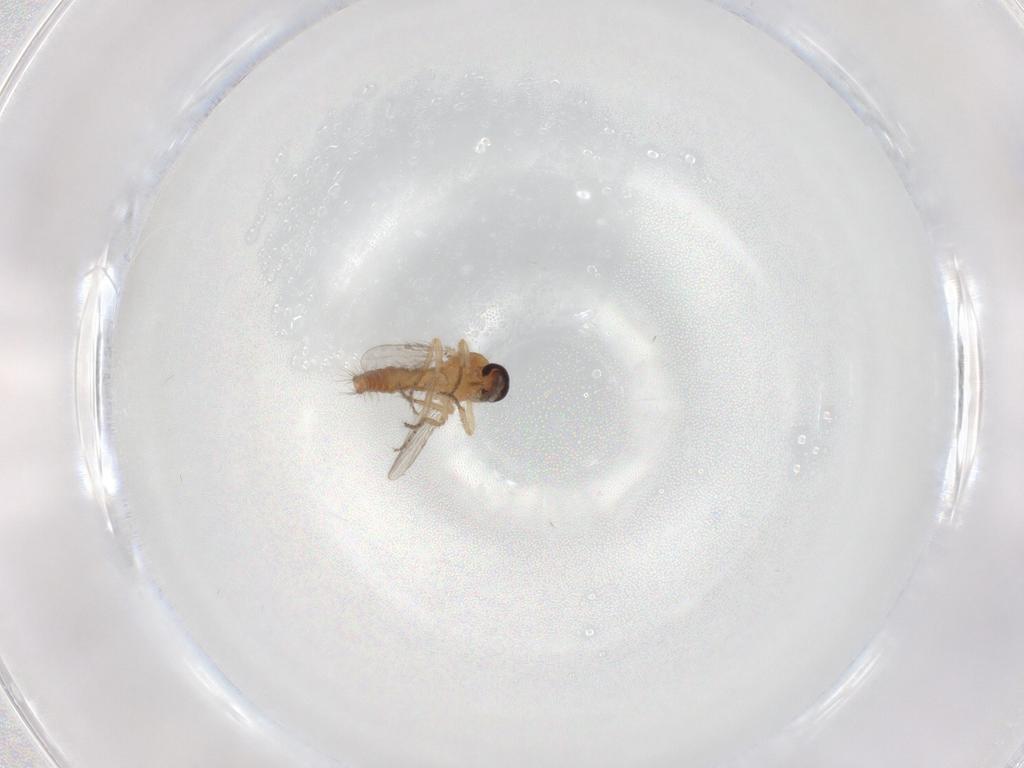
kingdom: Animalia
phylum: Arthropoda
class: Insecta
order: Diptera
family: Ceratopogonidae
